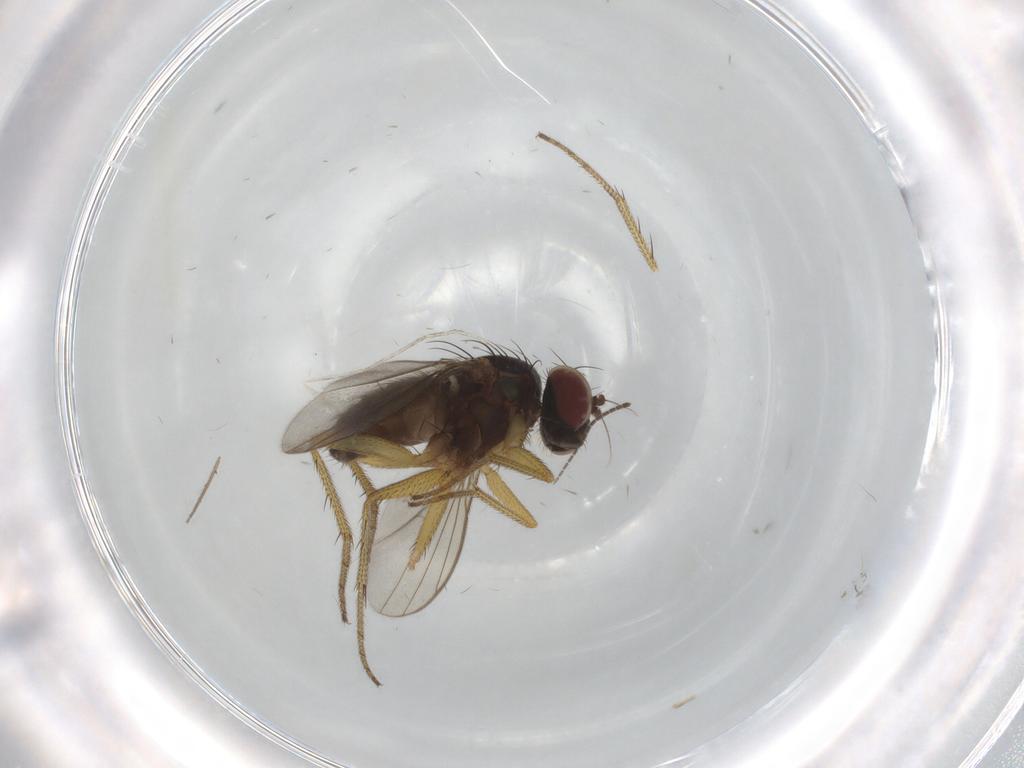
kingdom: Animalia
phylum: Arthropoda
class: Insecta
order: Diptera
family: Sciaridae
